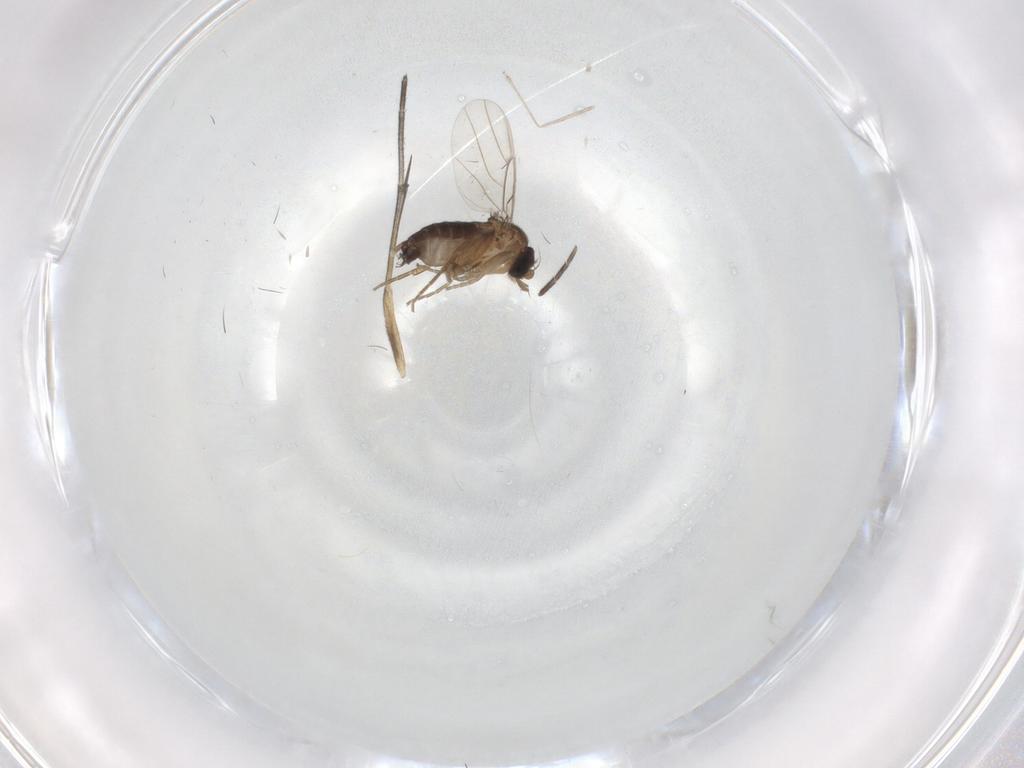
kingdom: Animalia
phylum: Arthropoda
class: Insecta
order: Diptera
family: Keroplatidae
